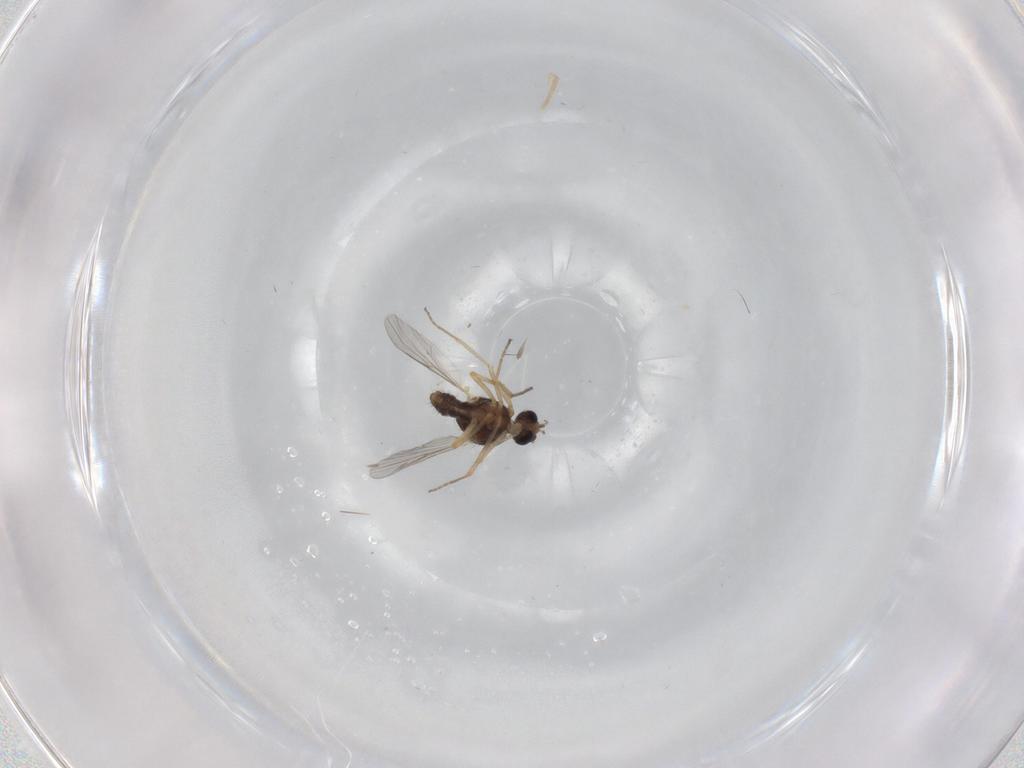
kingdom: Animalia
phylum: Arthropoda
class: Insecta
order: Diptera
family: Ceratopogonidae
